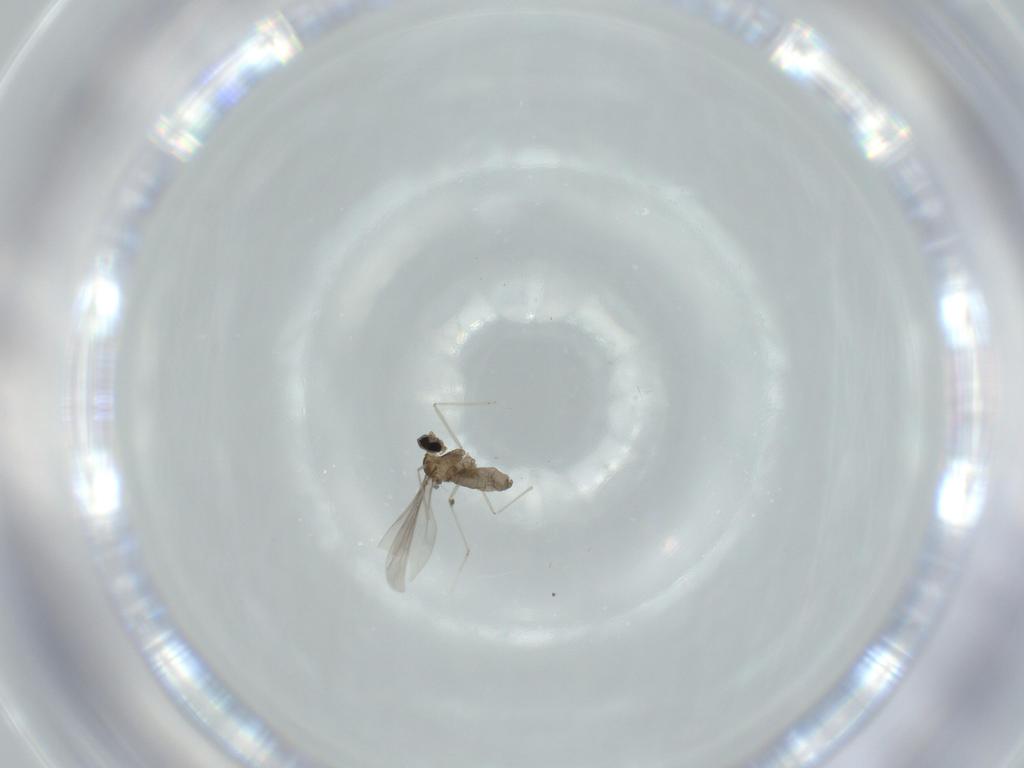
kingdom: Animalia
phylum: Arthropoda
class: Insecta
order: Diptera
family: Cecidomyiidae
